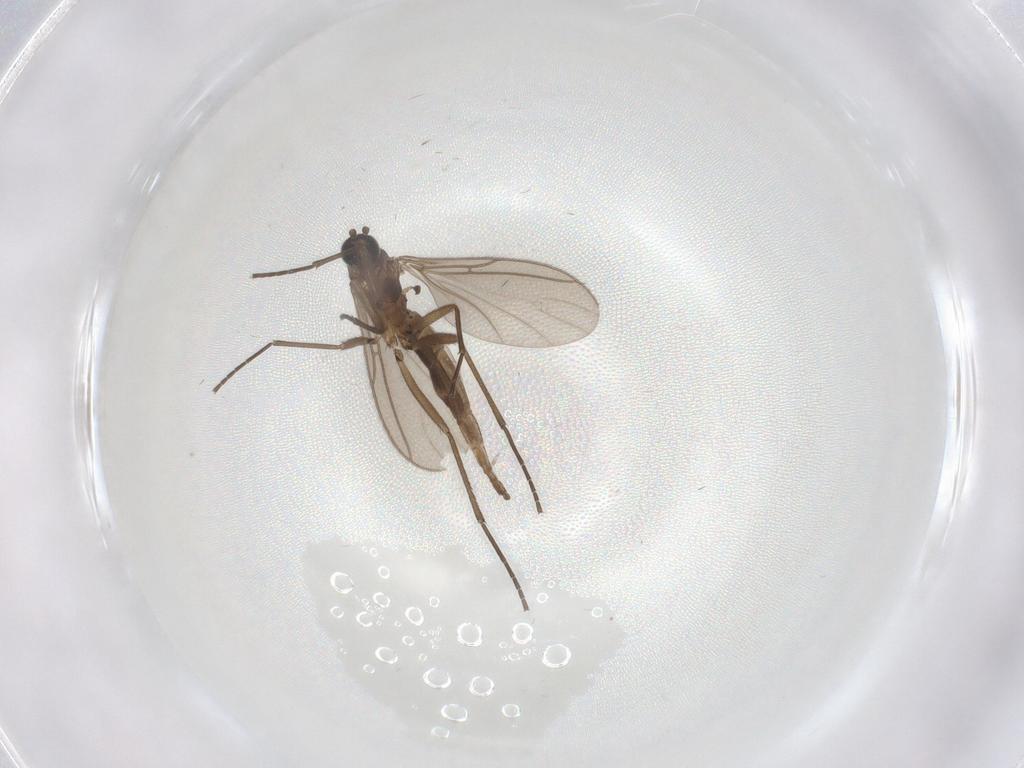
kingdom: Animalia
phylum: Arthropoda
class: Insecta
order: Diptera
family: Sciaridae
